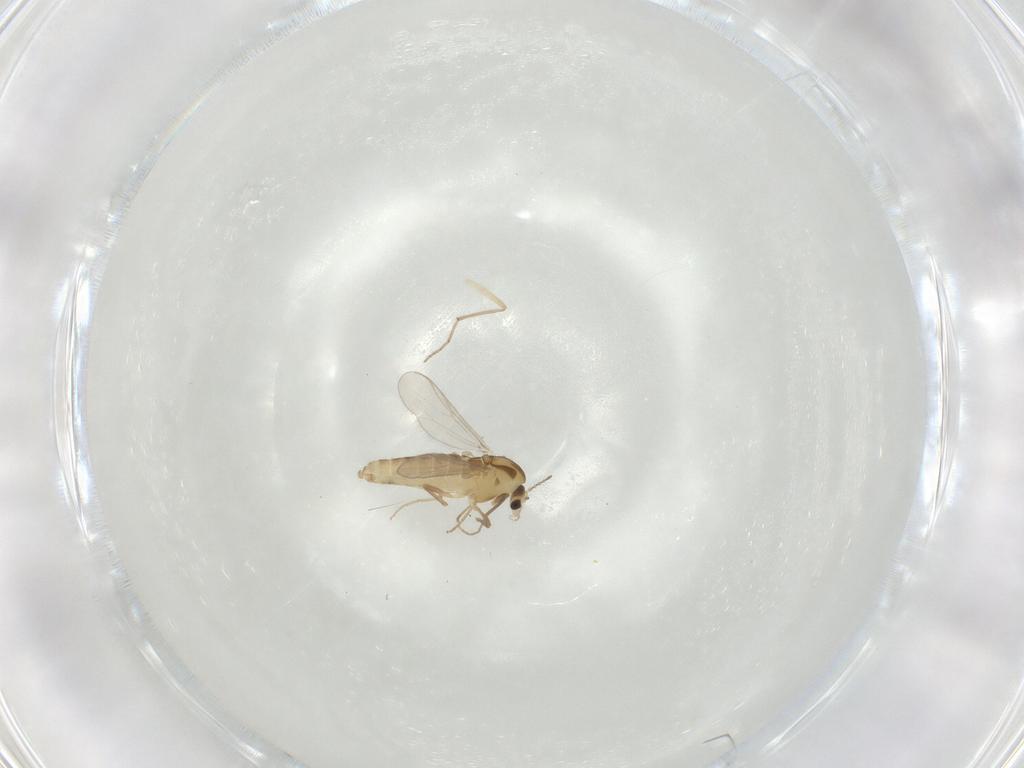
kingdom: Animalia
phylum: Arthropoda
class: Insecta
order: Diptera
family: Chironomidae
